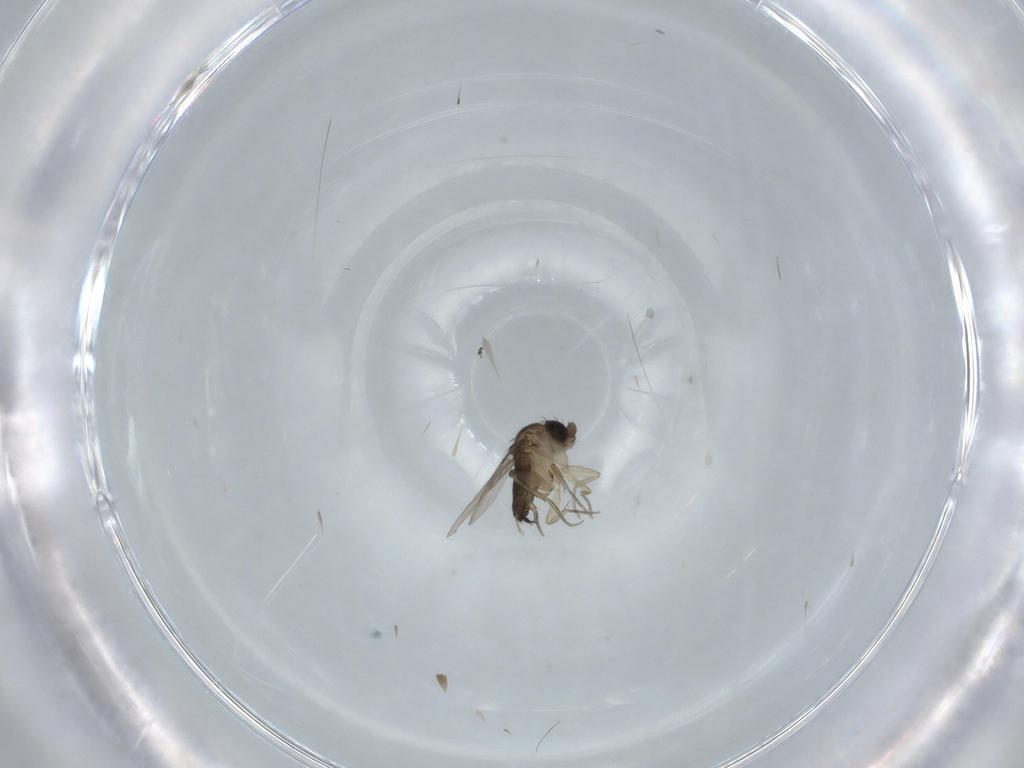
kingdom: Animalia
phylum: Arthropoda
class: Insecta
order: Diptera
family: Phoridae
